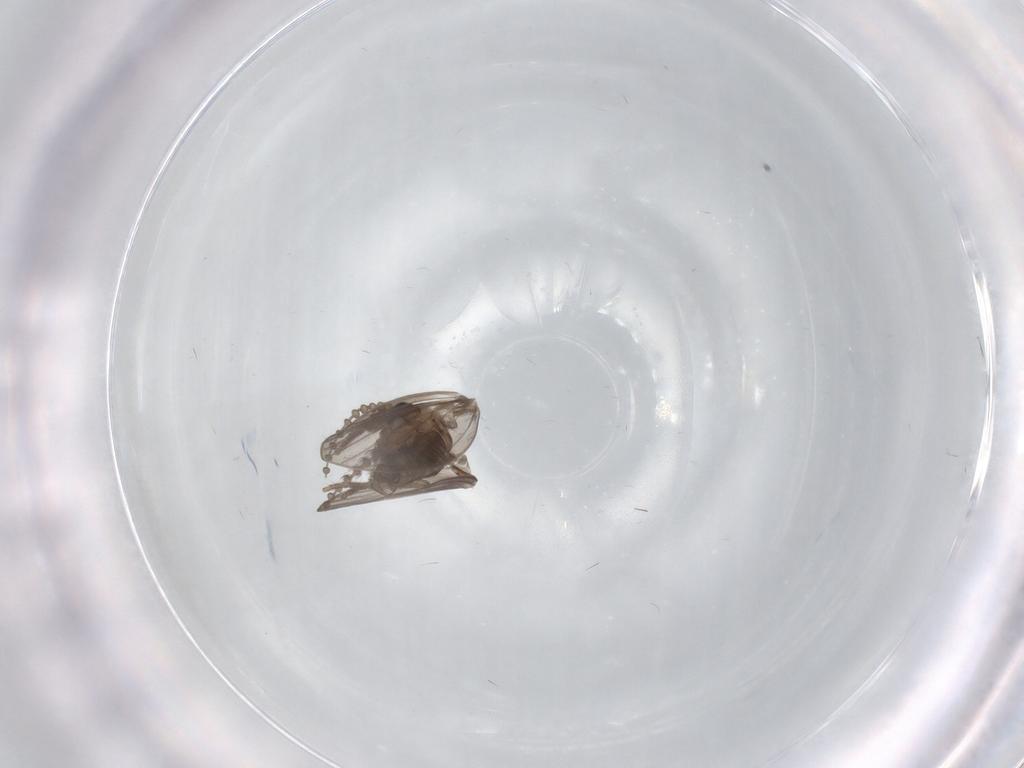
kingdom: Animalia
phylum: Arthropoda
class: Insecta
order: Diptera
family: Psychodidae
